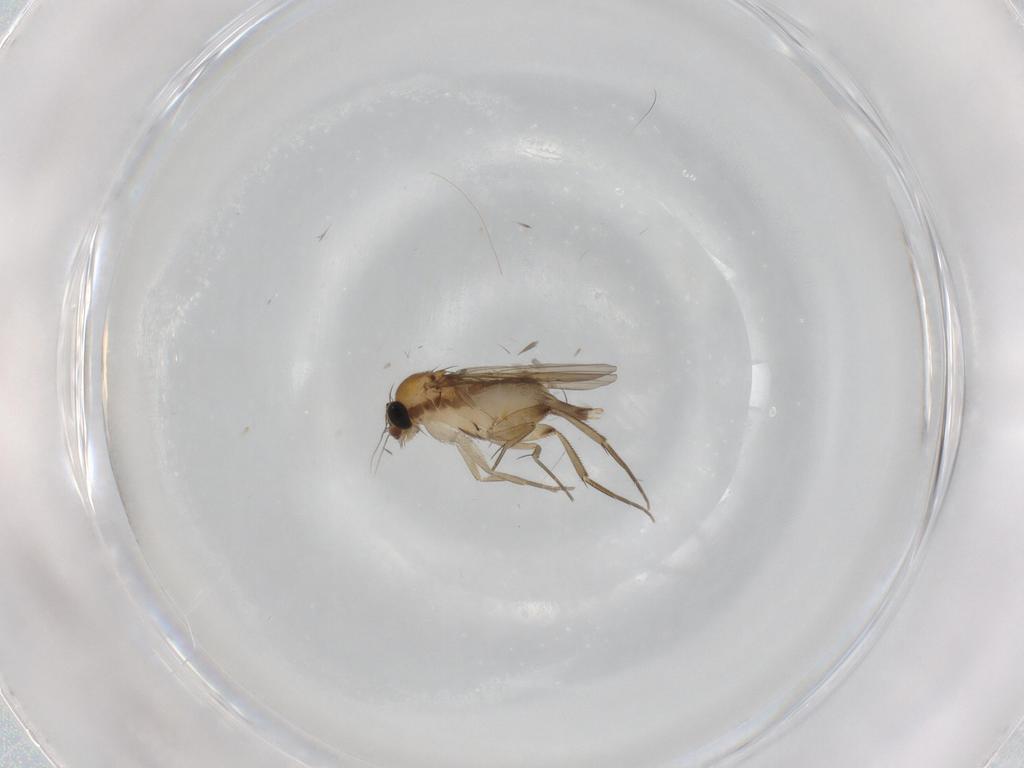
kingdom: Animalia
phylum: Arthropoda
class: Insecta
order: Diptera
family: Phoridae
